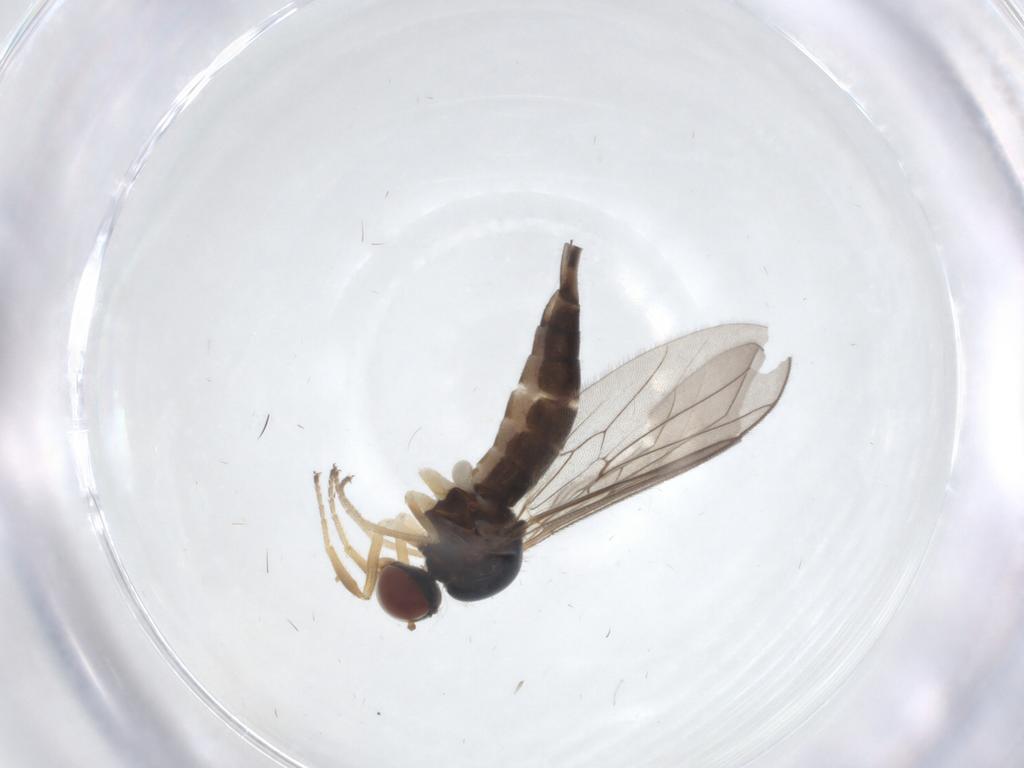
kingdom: Animalia
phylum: Arthropoda
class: Insecta
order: Diptera
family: Hybotidae
